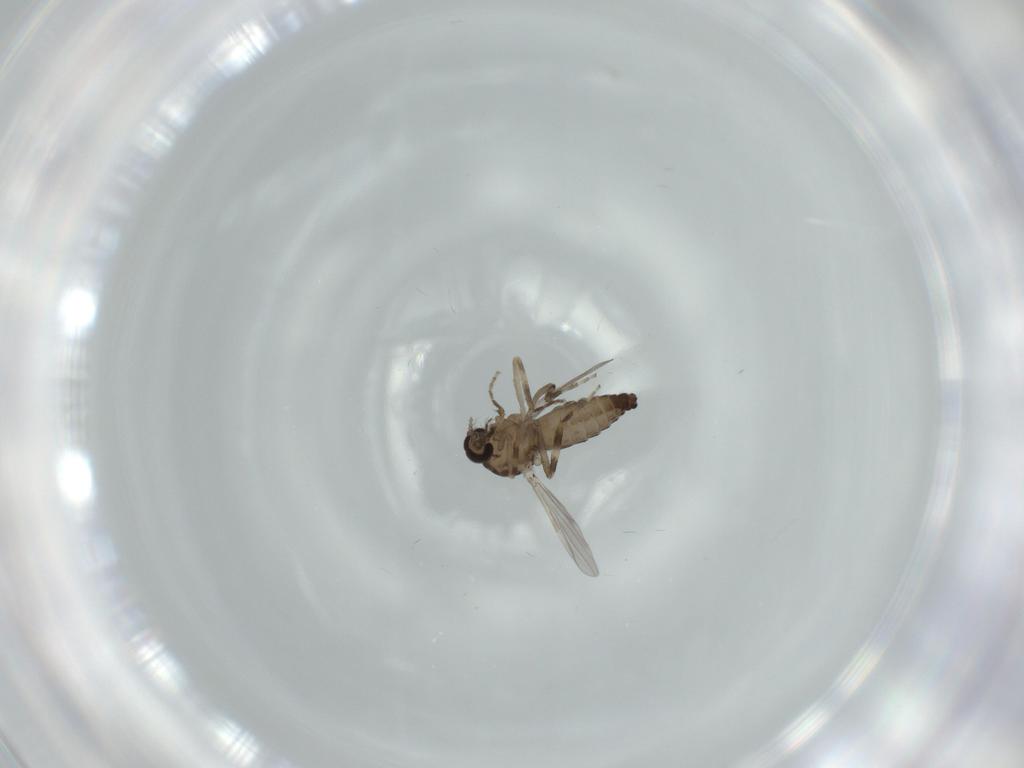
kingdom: Animalia
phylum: Arthropoda
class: Insecta
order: Diptera
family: Ceratopogonidae
